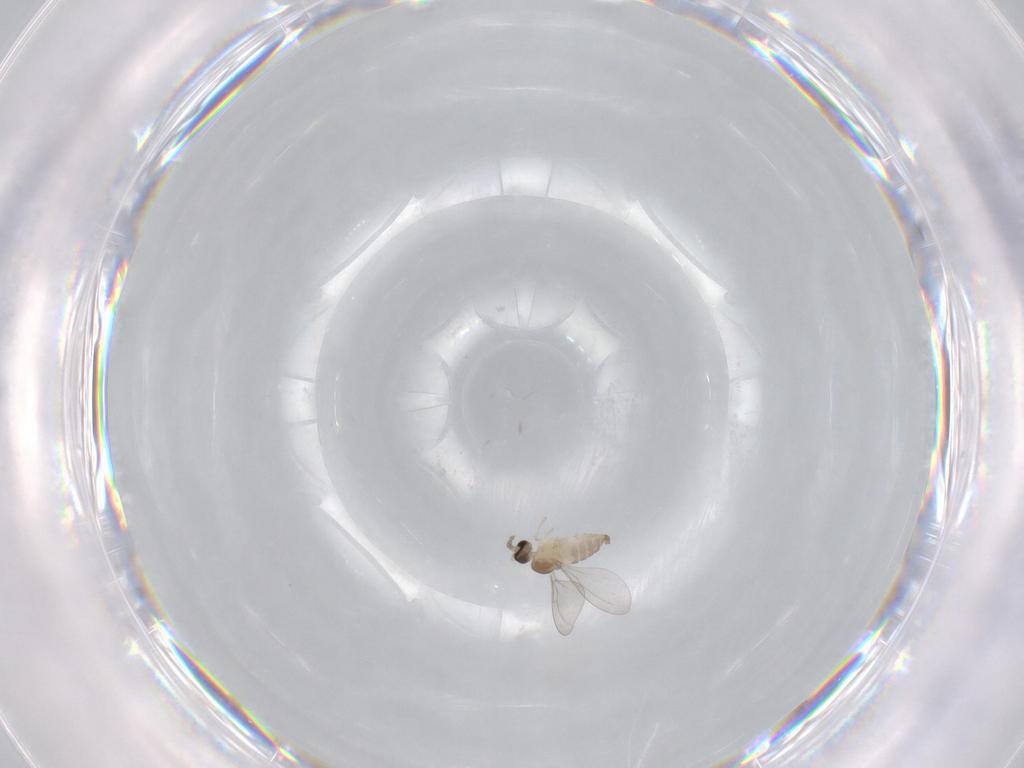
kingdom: Animalia
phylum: Arthropoda
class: Insecta
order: Diptera
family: Cecidomyiidae
